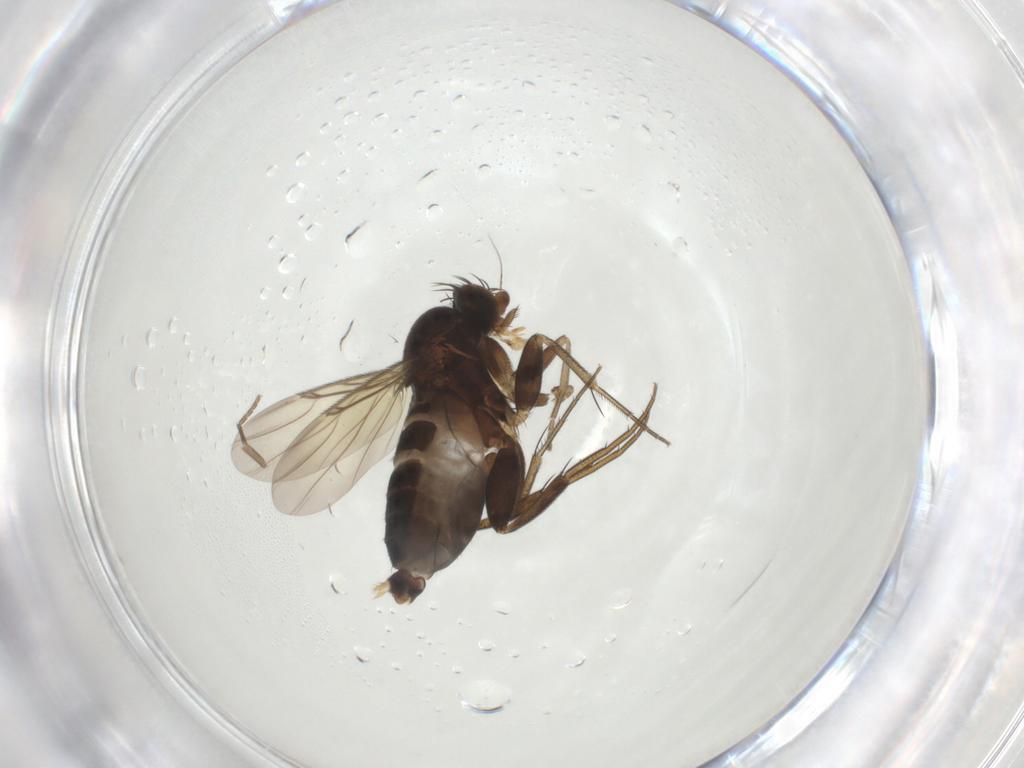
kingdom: Animalia
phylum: Arthropoda
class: Insecta
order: Diptera
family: Phoridae
